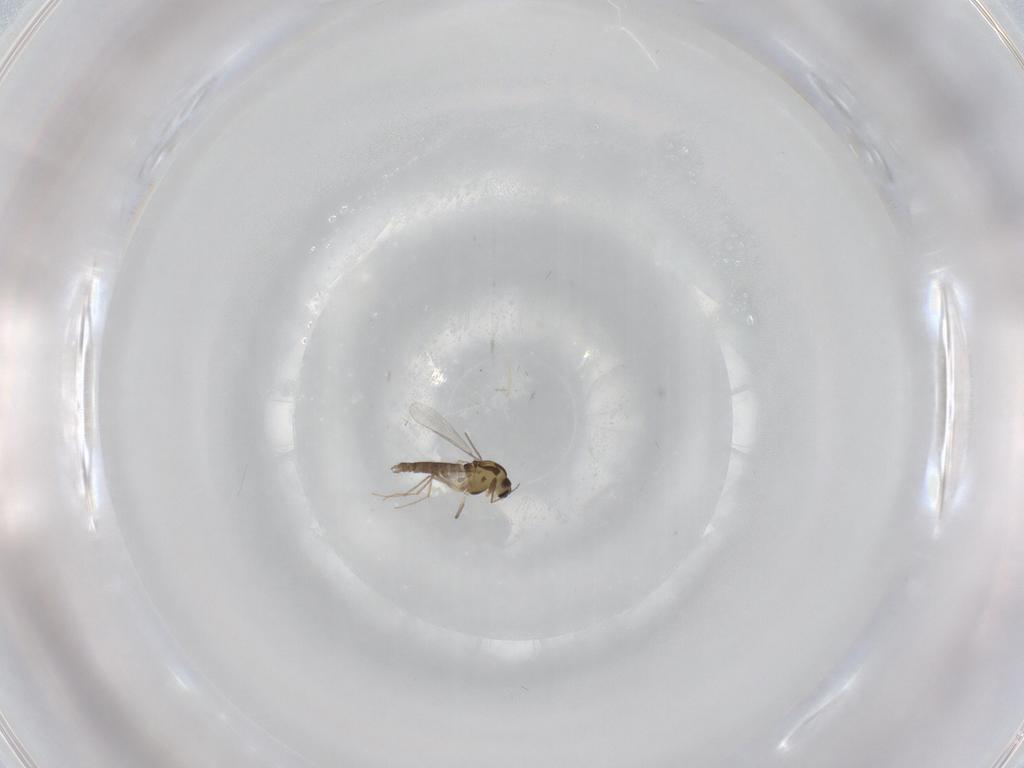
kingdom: Animalia
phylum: Arthropoda
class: Insecta
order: Diptera
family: Chironomidae
